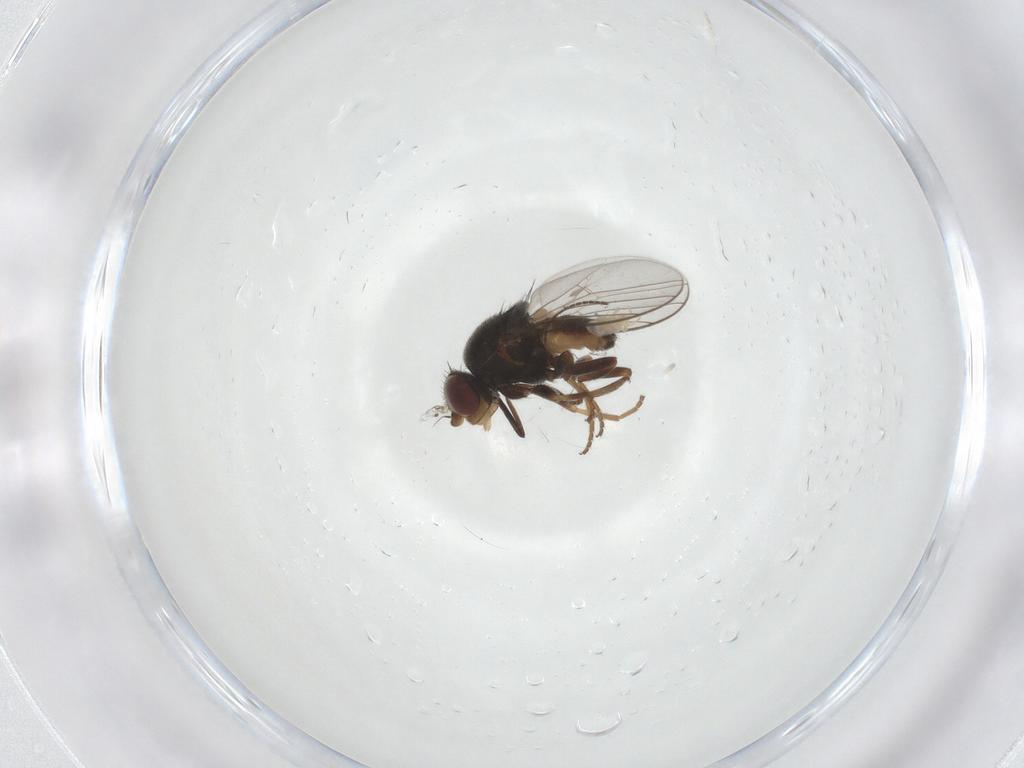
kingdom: Animalia
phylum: Arthropoda
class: Insecta
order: Diptera
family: Chloropidae
